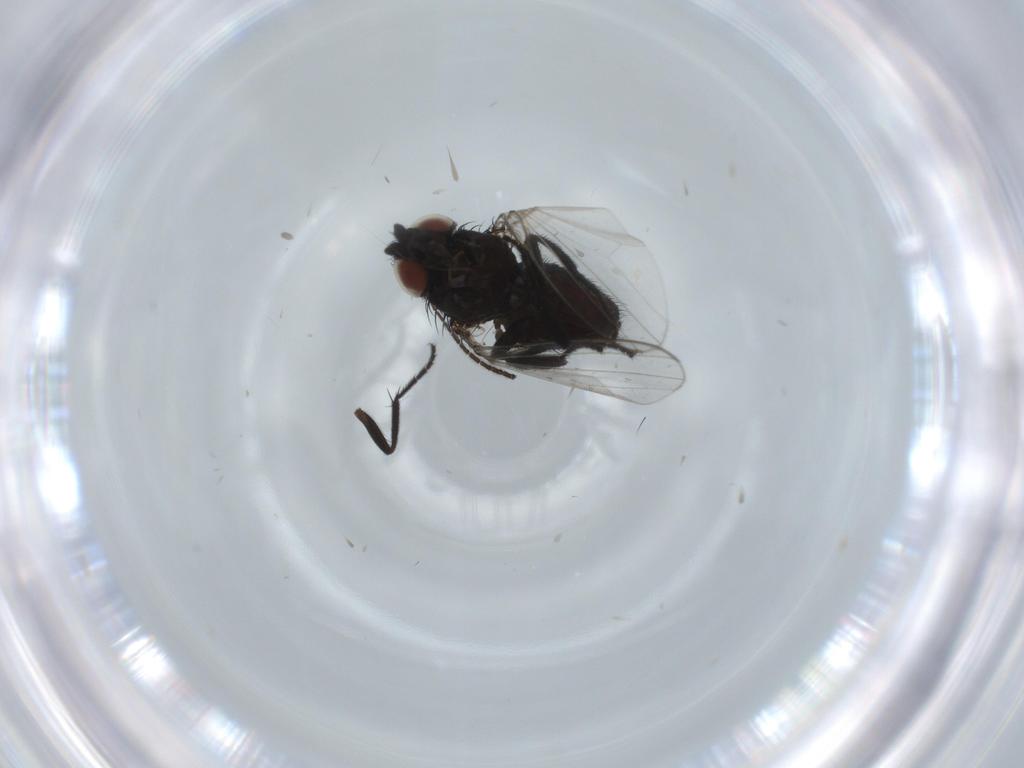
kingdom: Animalia
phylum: Arthropoda
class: Insecta
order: Diptera
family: Sciaridae
